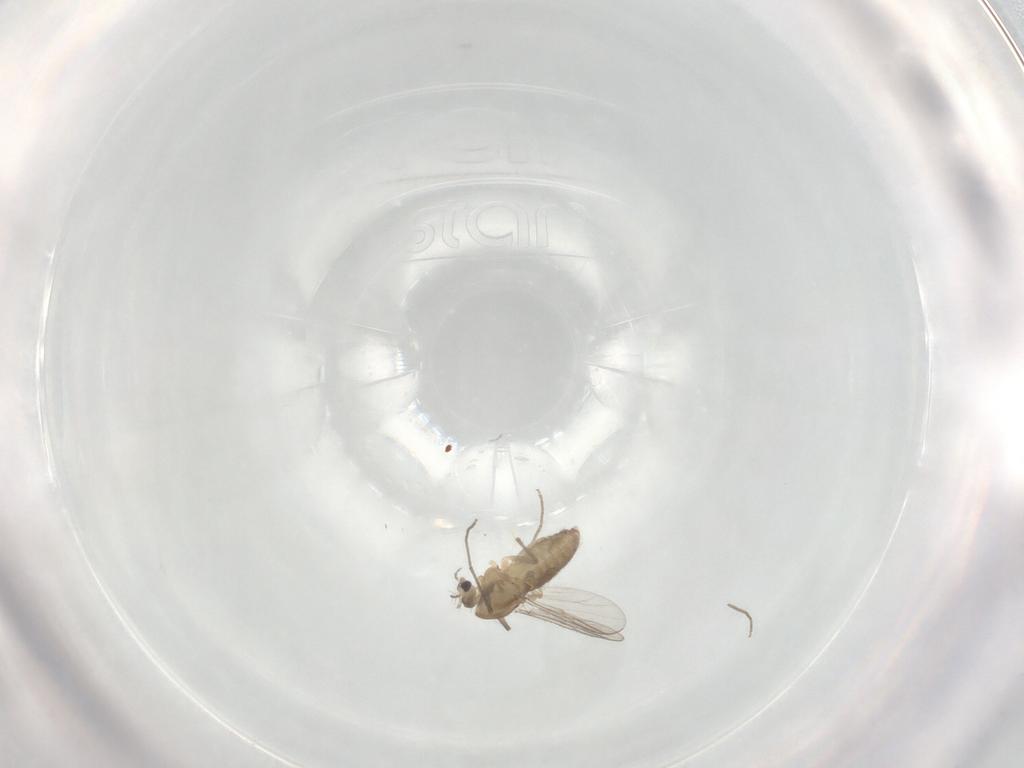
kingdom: Animalia
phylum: Arthropoda
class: Insecta
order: Diptera
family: Chironomidae
